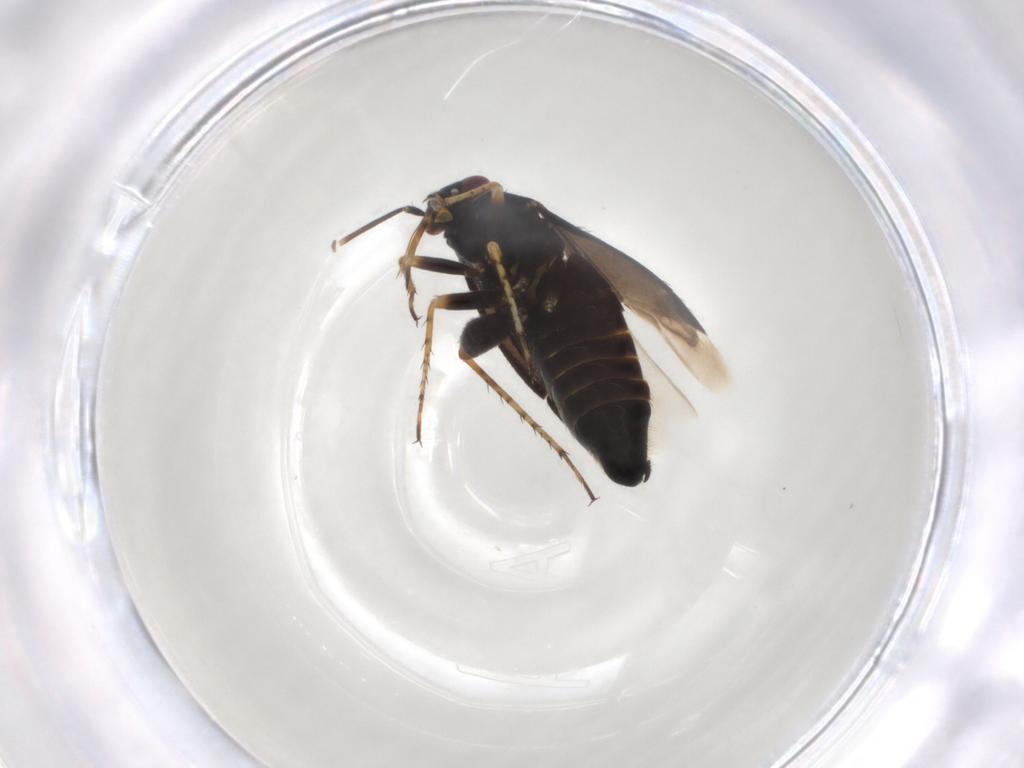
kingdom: Animalia
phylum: Arthropoda
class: Insecta
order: Hemiptera
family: Miridae
